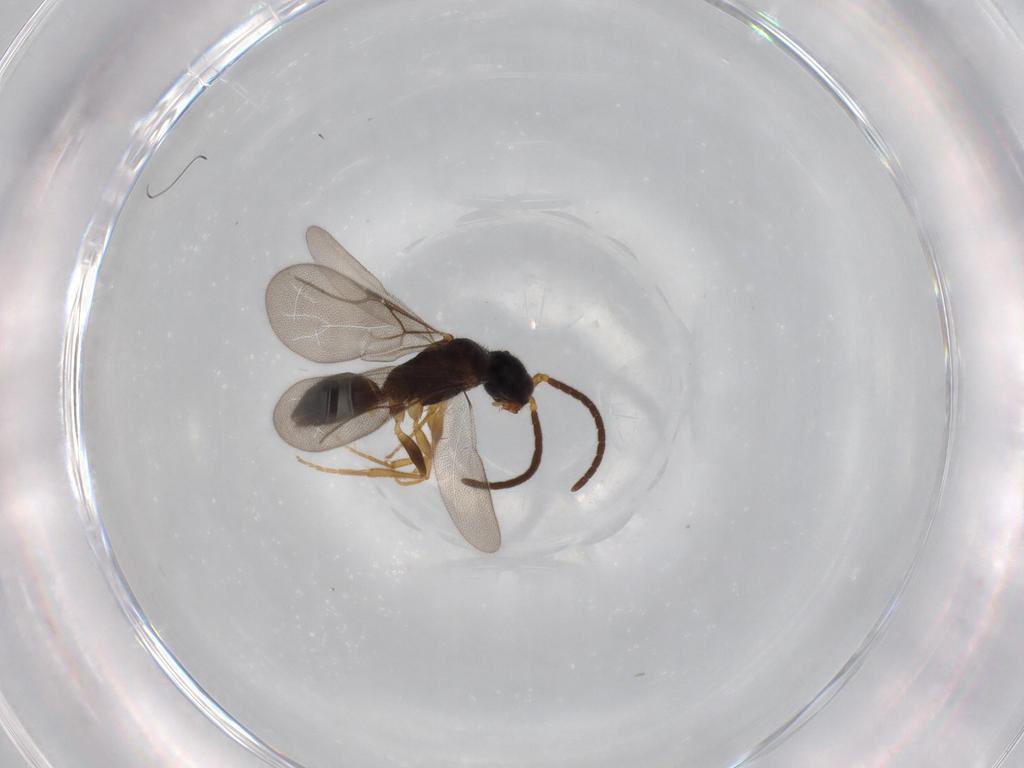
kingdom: Animalia
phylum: Arthropoda
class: Insecta
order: Hymenoptera
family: Bethylidae
